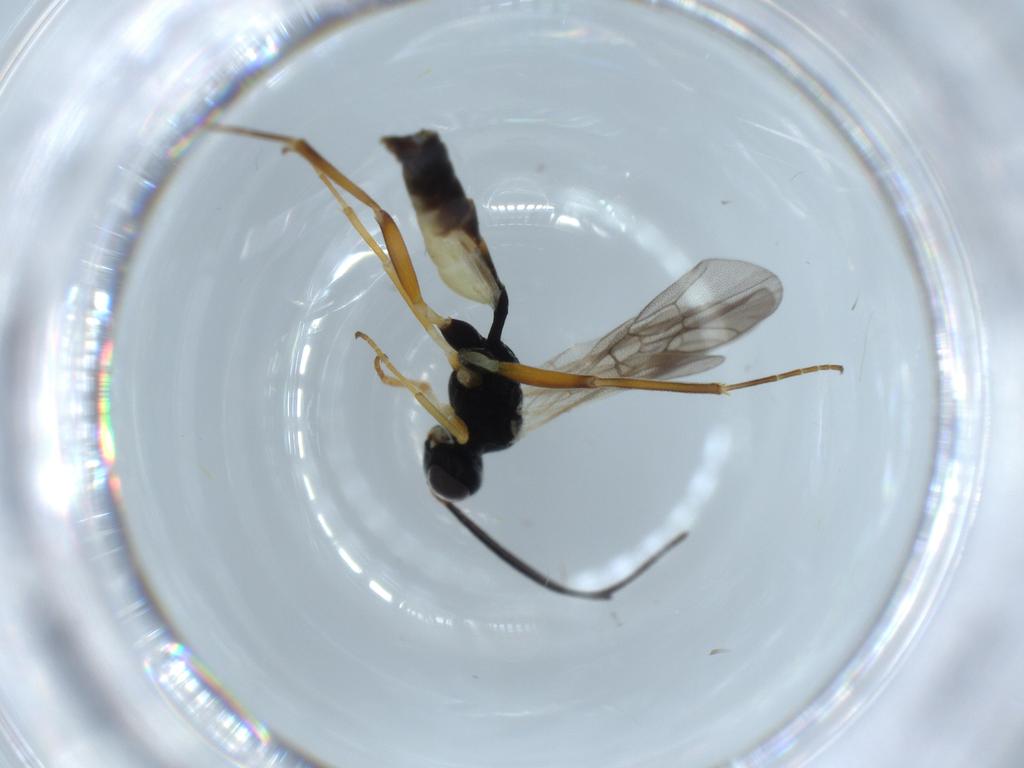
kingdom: Animalia
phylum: Arthropoda
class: Insecta
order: Hymenoptera
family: Ichneumonidae
